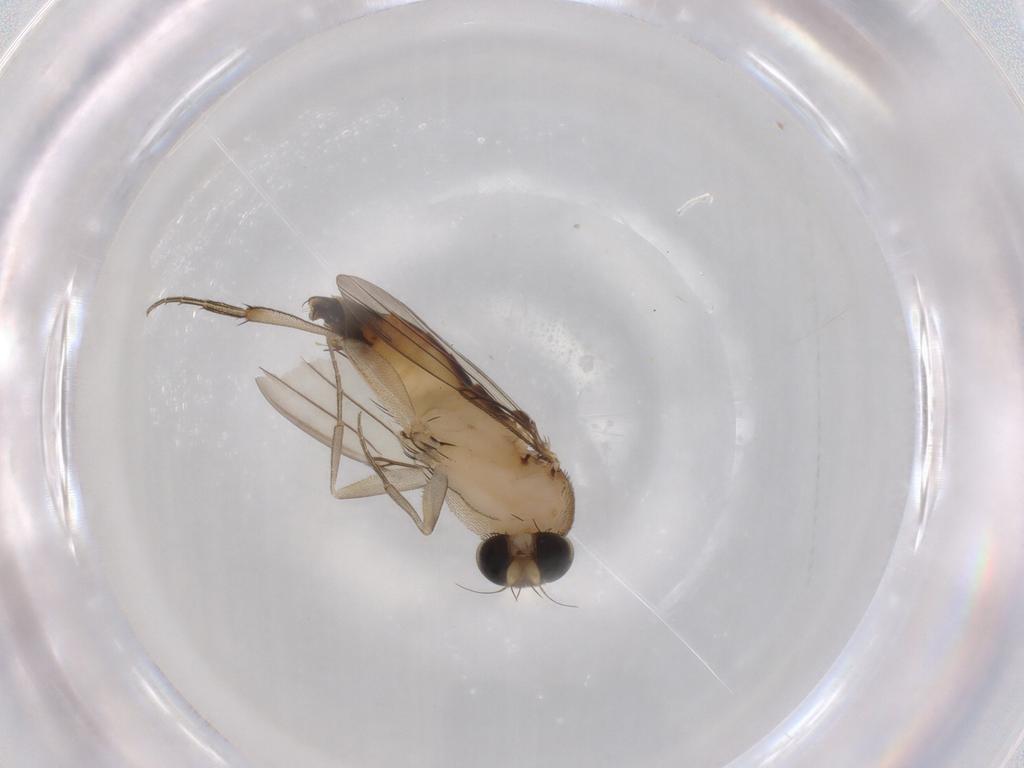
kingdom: Animalia
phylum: Arthropoda
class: Insecta
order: Diptera
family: Phoridae
